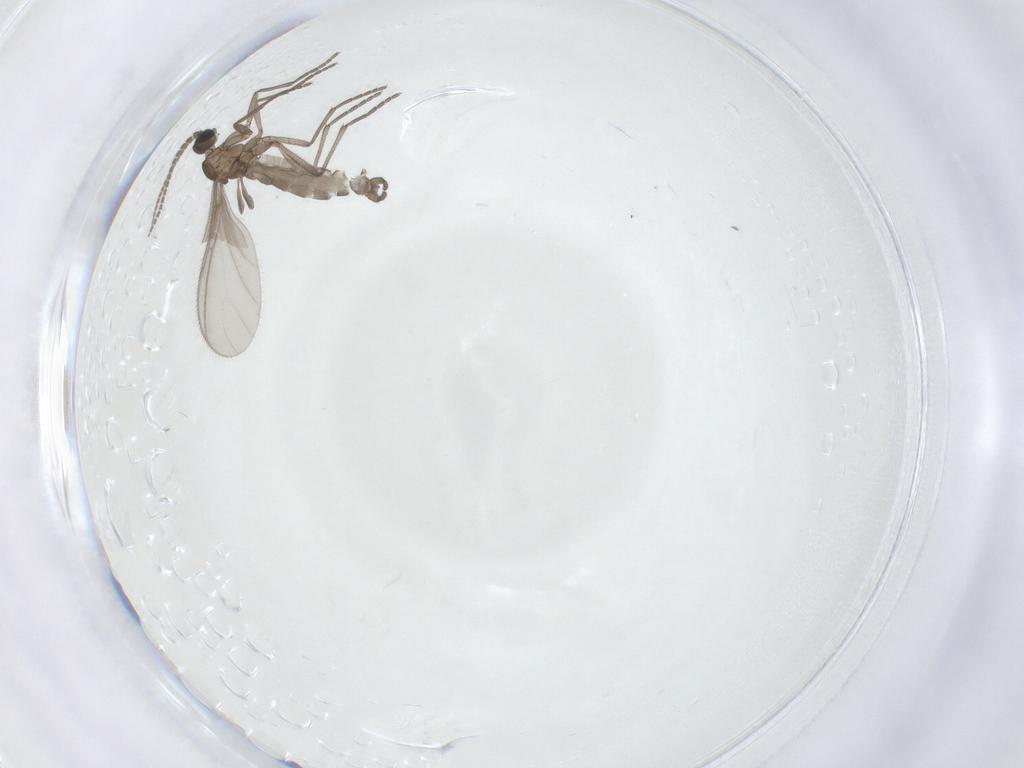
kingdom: Animalia
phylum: Arthropoda
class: Insecta
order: Diptera
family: Sciaridae
